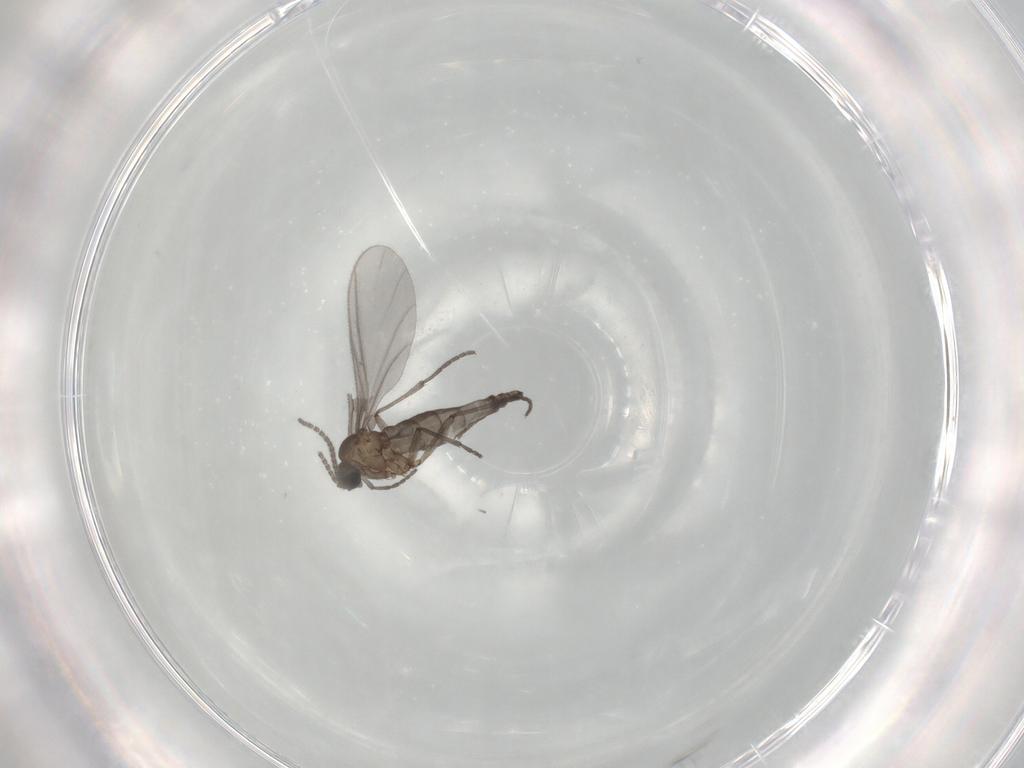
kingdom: Animalia
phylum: Arthropoda
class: Insecta
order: Diptera
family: Sciaridae
